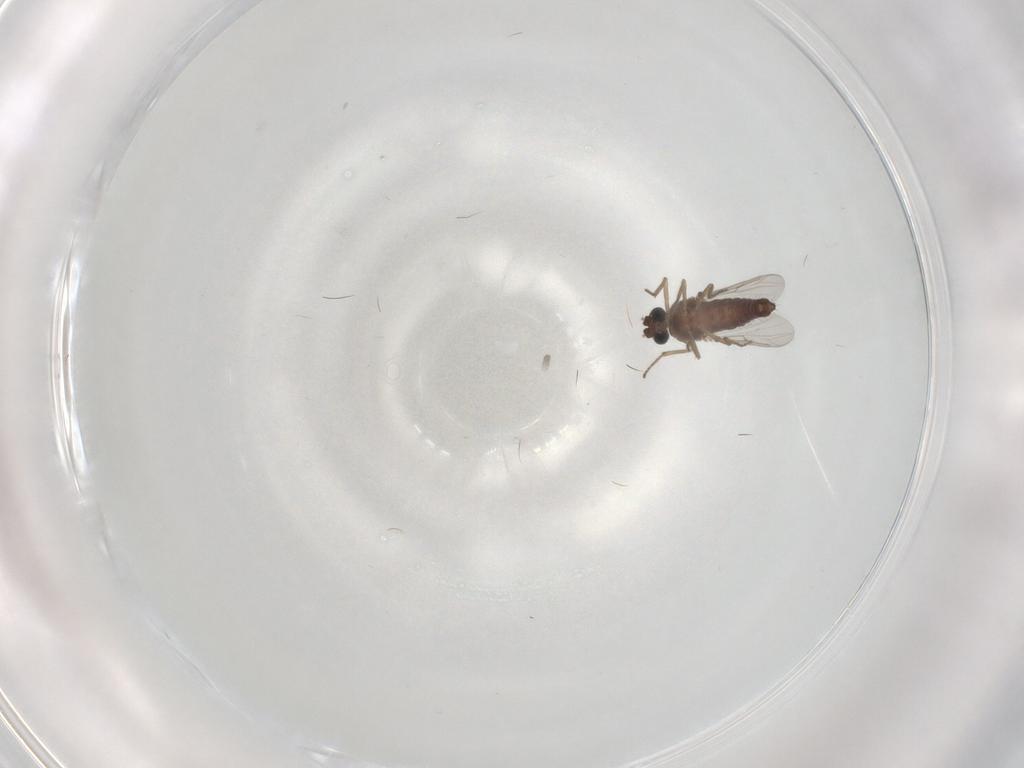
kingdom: Animalia
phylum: Arthropoda
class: Insecta
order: Diptera
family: Ceratopogonidae
